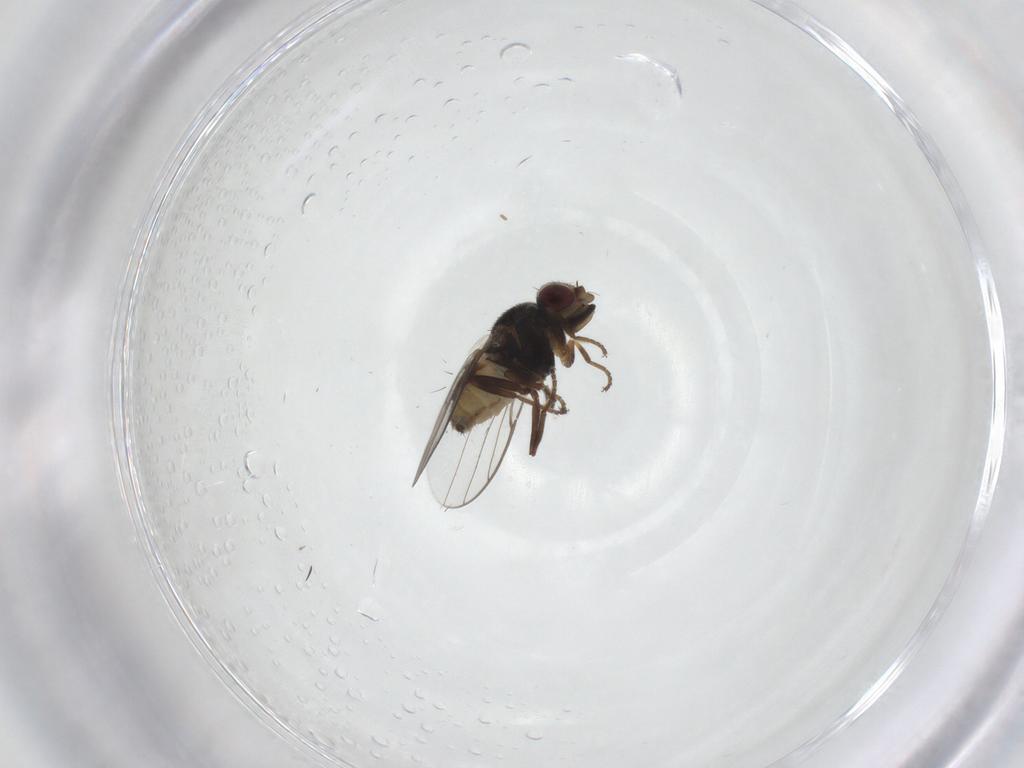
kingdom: Animalia
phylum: Arthropoda
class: Insecta
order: Diptera
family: Chloropidae
